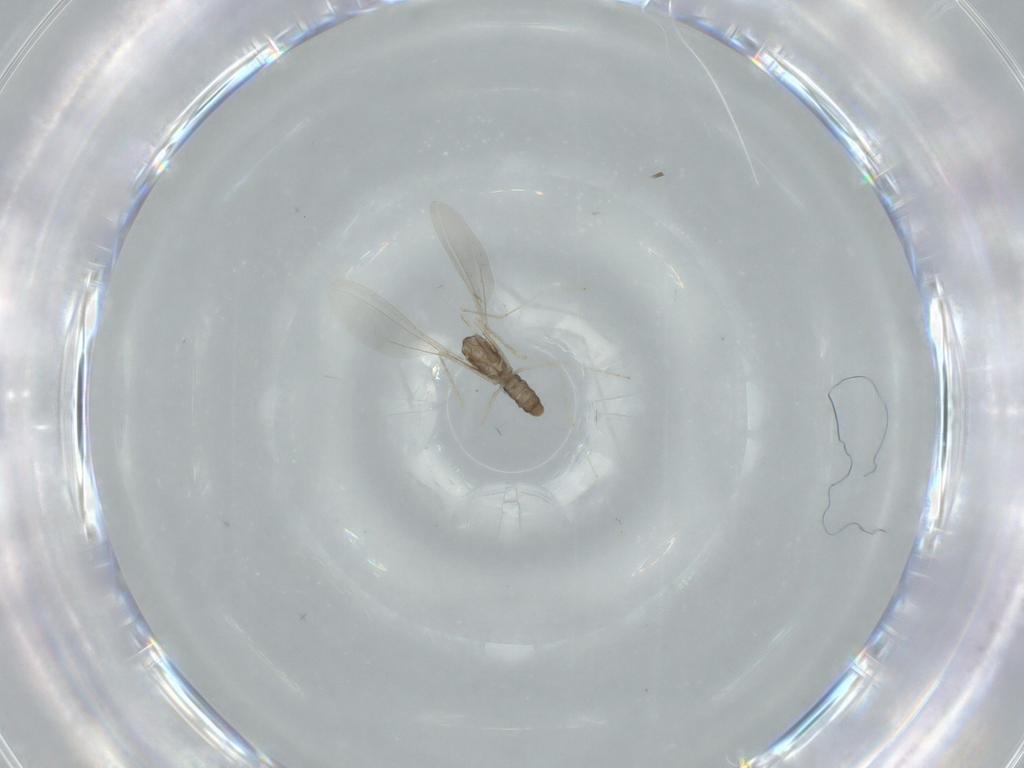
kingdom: Animalia
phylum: Arthropoda
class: Insecta
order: Diptera
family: Cecidomyiidae
